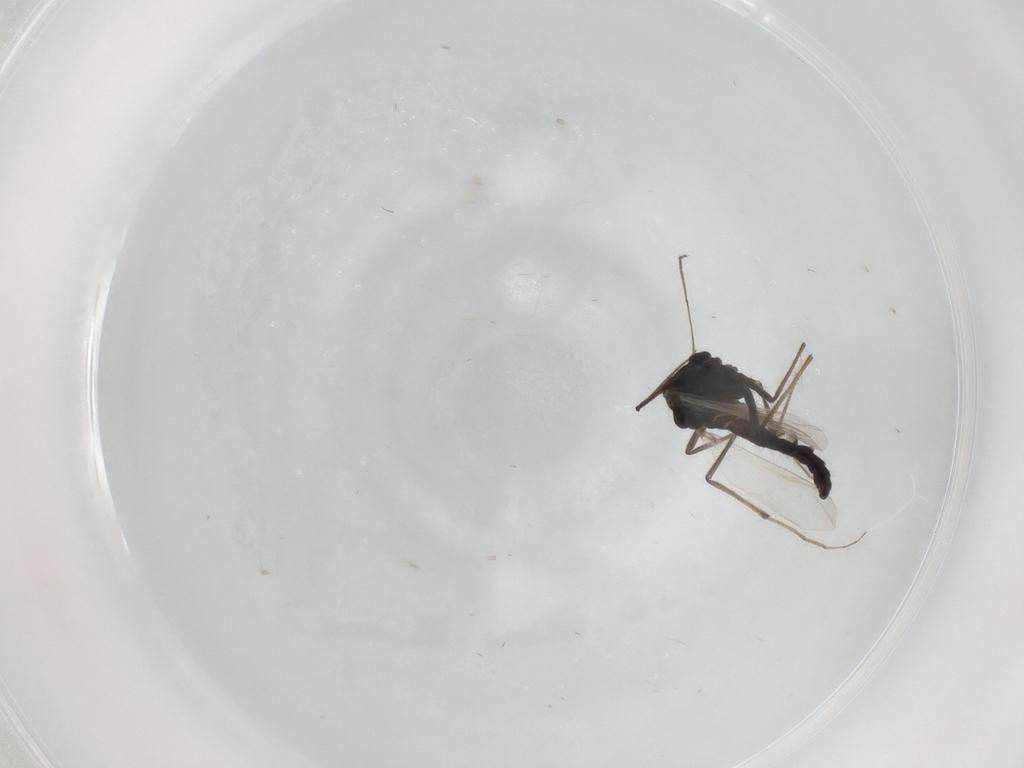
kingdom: Animalia
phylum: Arthropoda
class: Insecta
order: Diptera
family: Chironomidae
